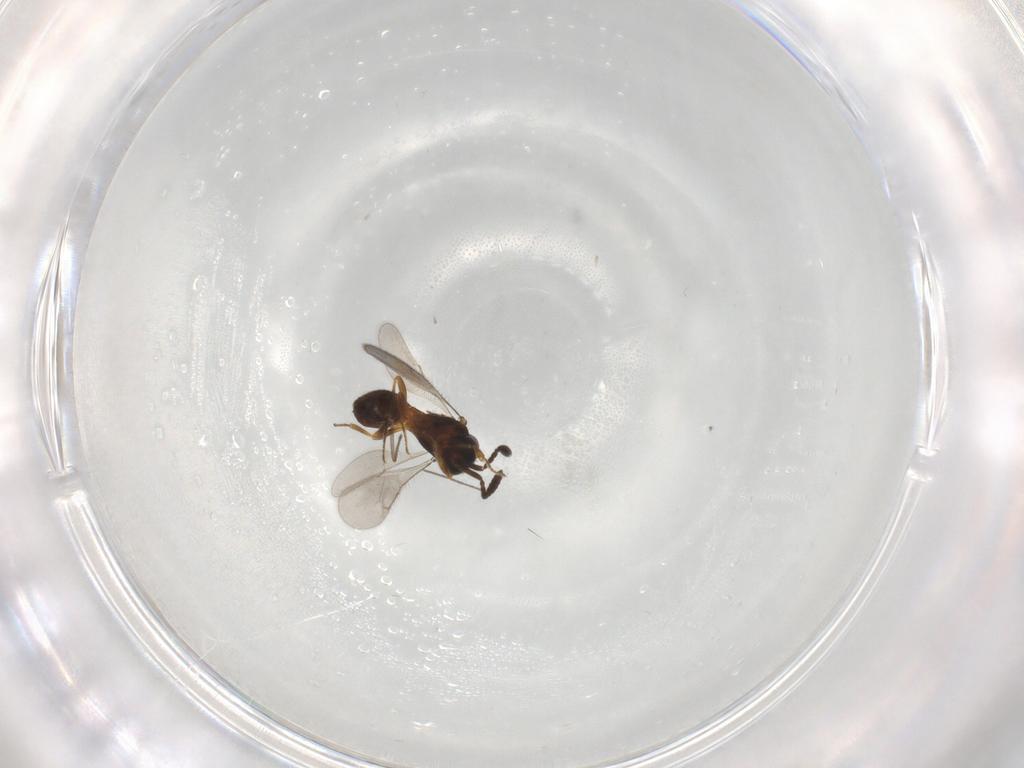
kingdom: Animalia
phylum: Arthropoda
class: Insecta
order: Hymenoptera
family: Scelionidae
